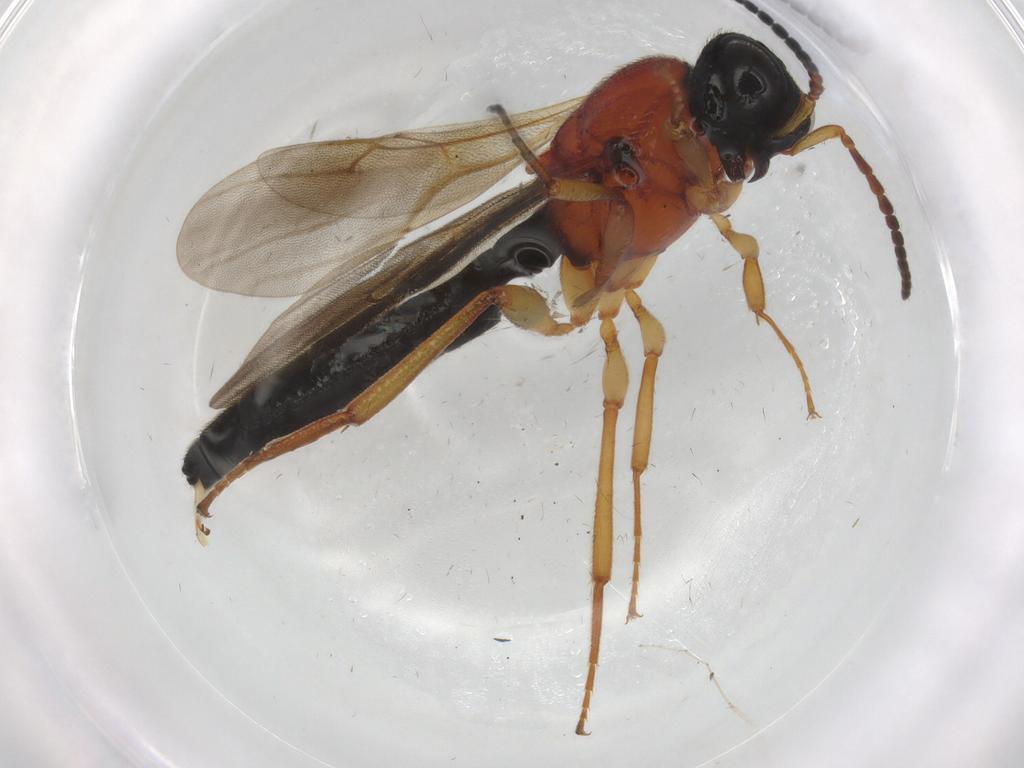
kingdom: Animalia
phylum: Arthropoda
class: Insecta
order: Hymenoptera
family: Scelionidae
